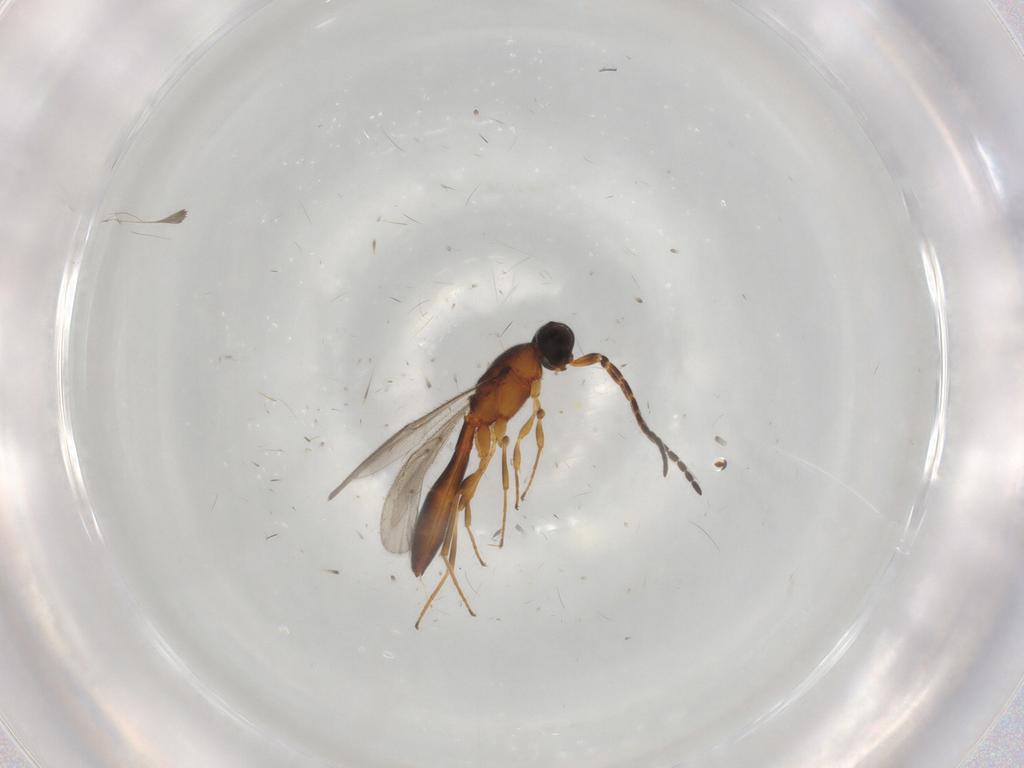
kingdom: Animalia
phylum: Arthropoda
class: Insecta
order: Hymenoptera
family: Scelionidae
